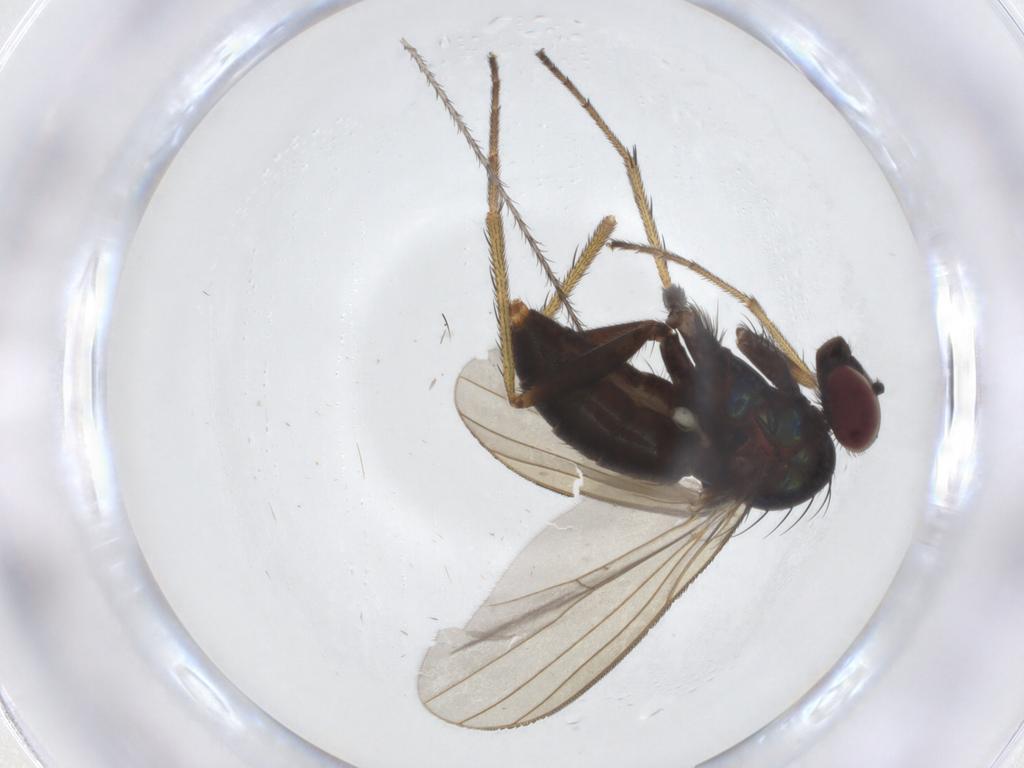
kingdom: Animalia
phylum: Arthropoda
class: Insecta
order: Diptera
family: Dolichopodidae
